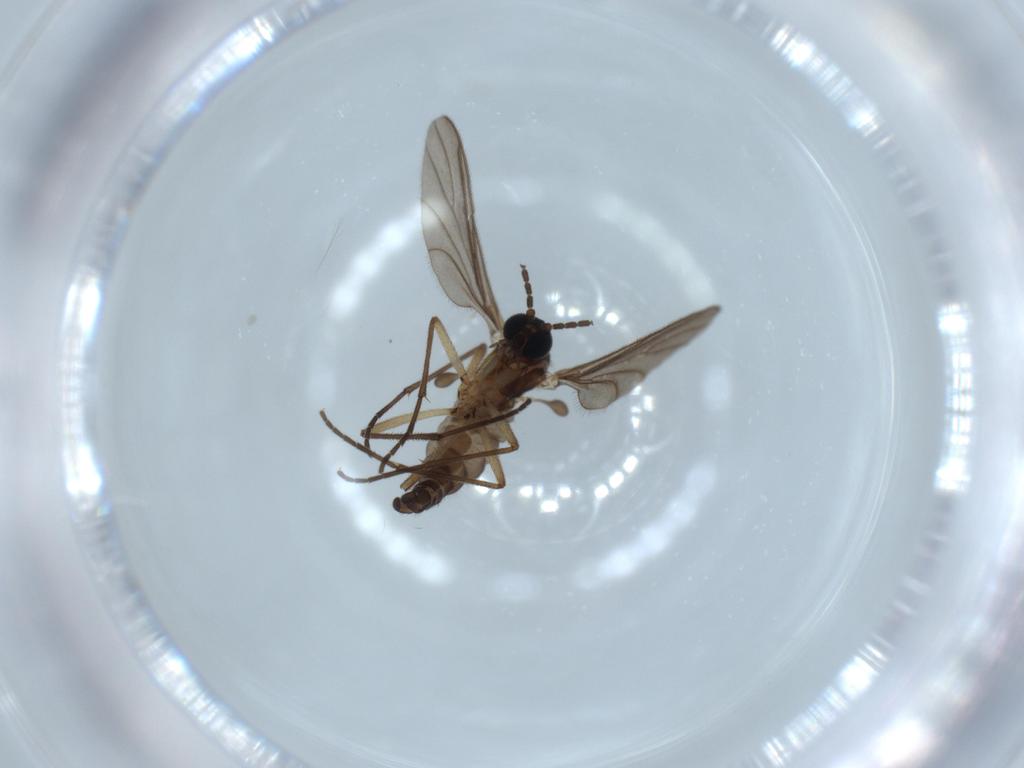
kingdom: Animalia
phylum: Arthropoda
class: Insecta
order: Diptera
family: Sciaridae
